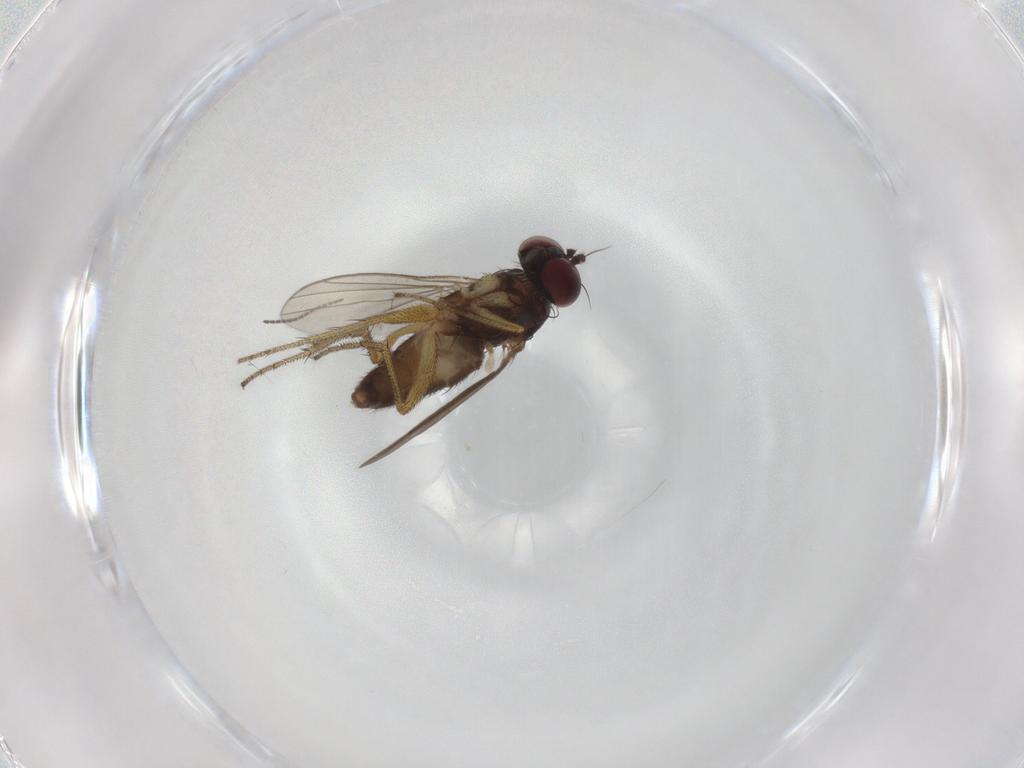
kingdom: Animalia
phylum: Arthropoda
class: Insecta
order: Diptera
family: Dolichopodidae
